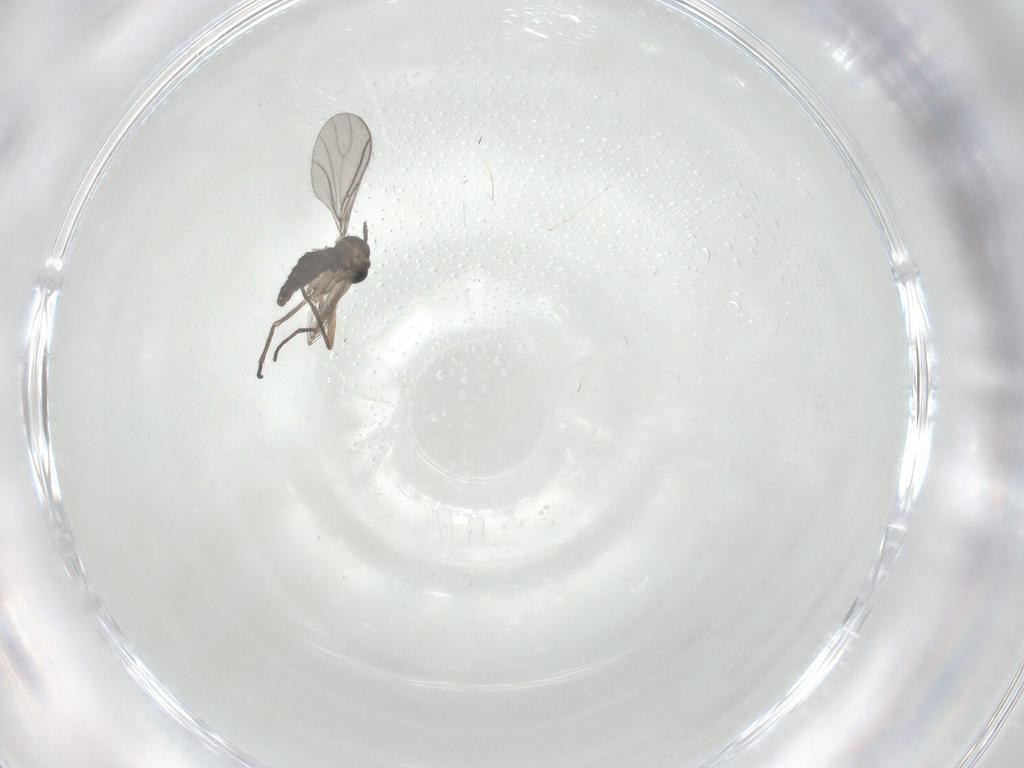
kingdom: Animalia
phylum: Arthropoda
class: Insecta
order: Diptera
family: Ceratopogonidae
